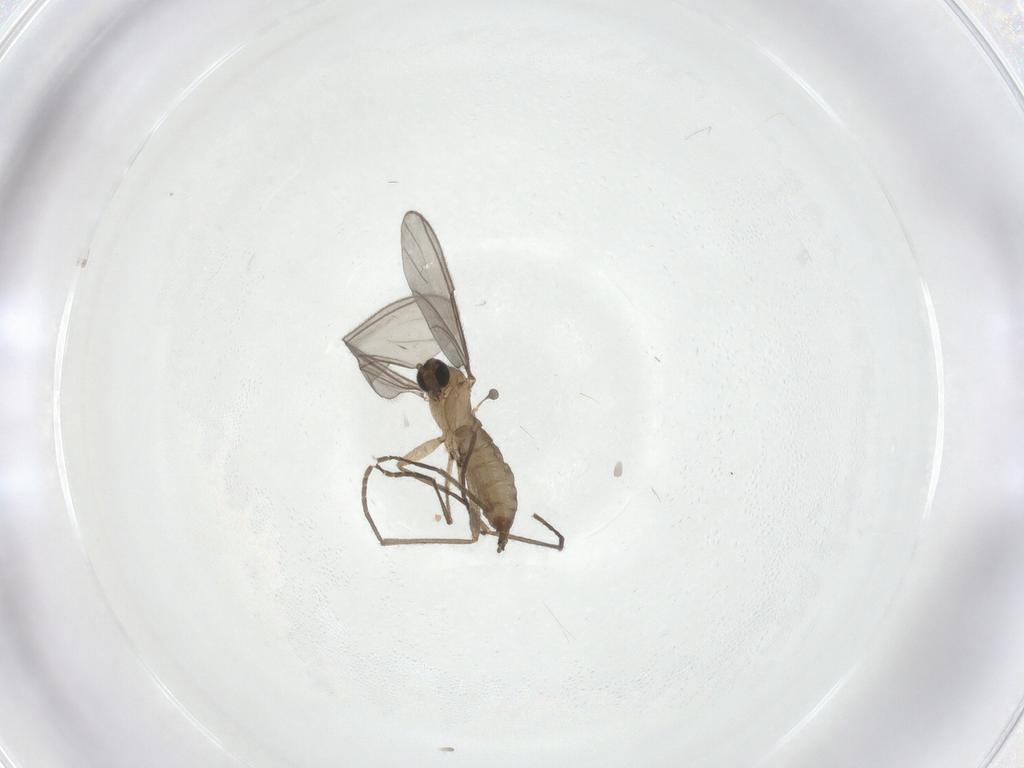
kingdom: Animalia
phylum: Arthropoda
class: Insecta
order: Diptera
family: Sciaridae
